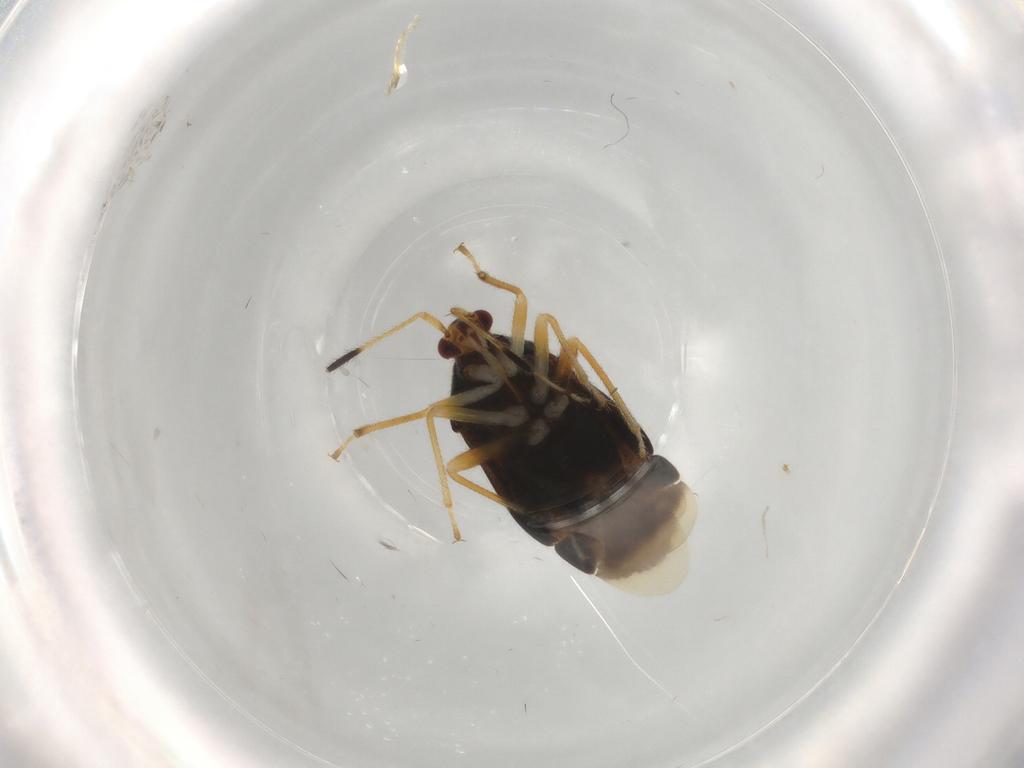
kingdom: Animalia
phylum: Arthropoda
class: Insecta
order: Hemiptera
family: Miridae
